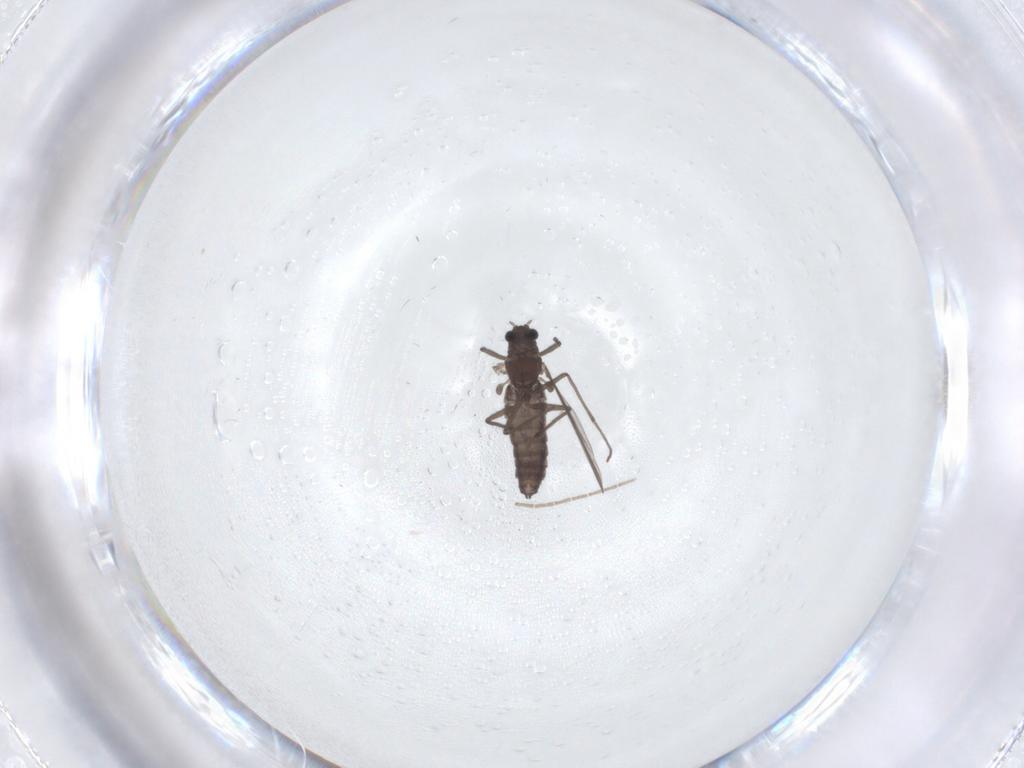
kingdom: Animalia
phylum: Arthropoda
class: Insecta
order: Diptera
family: Chironomidae
